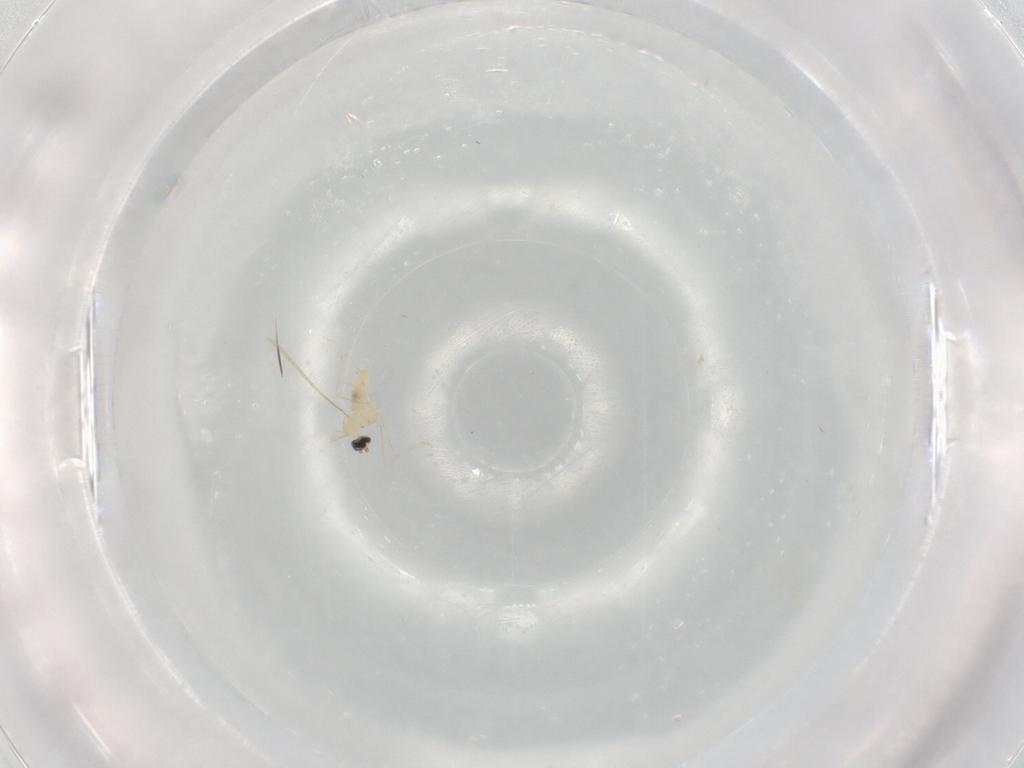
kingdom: Animalia
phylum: Arthropoda
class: Insecta
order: Diptera
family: Cecidomyiidae
